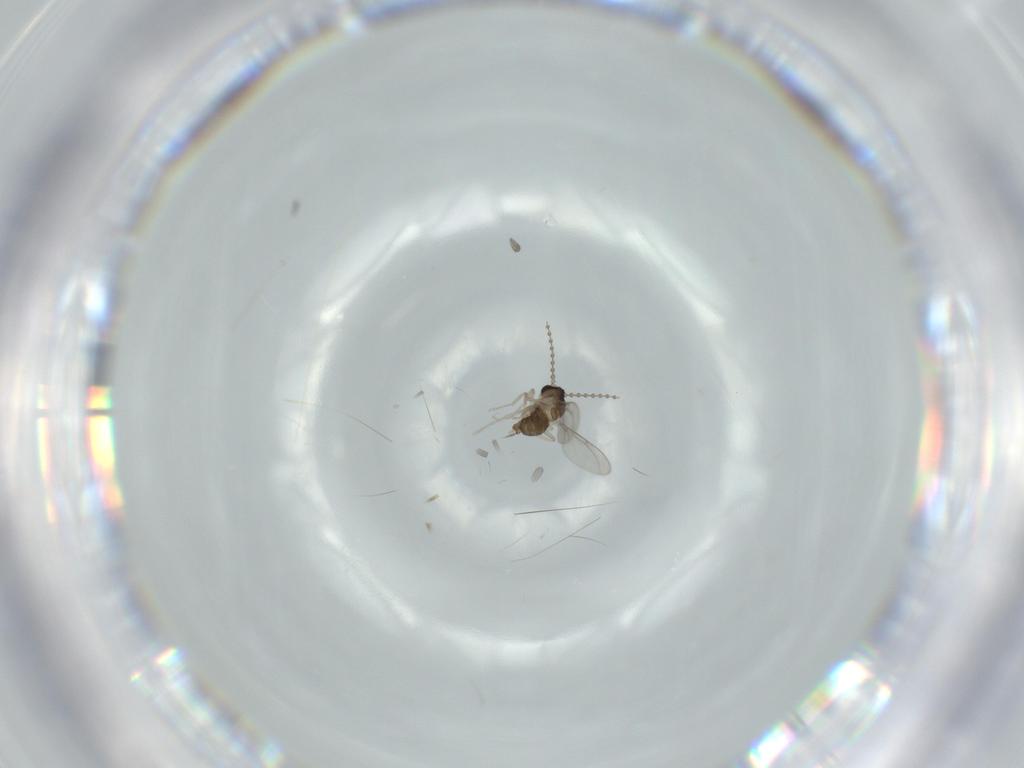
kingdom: Animalia
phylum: Arthropoda
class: Insecta
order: Diptera
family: Cecidomyiidae
